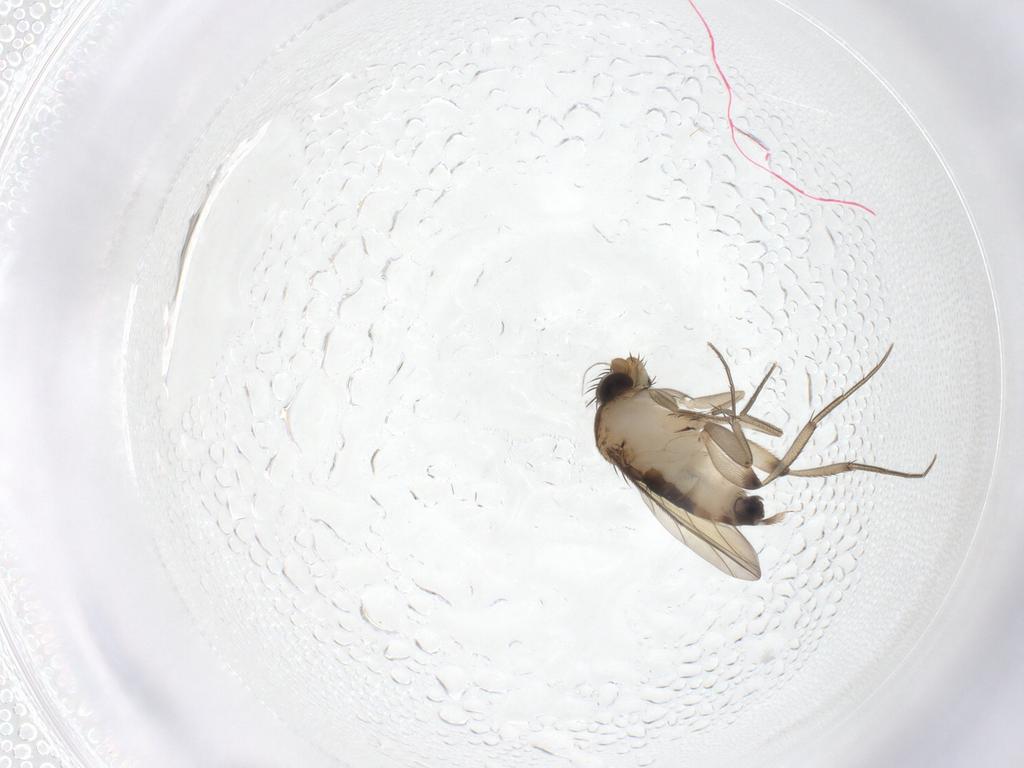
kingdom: Animalia
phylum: Arthropoda
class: Insecta
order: Diptera
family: Phoridae
